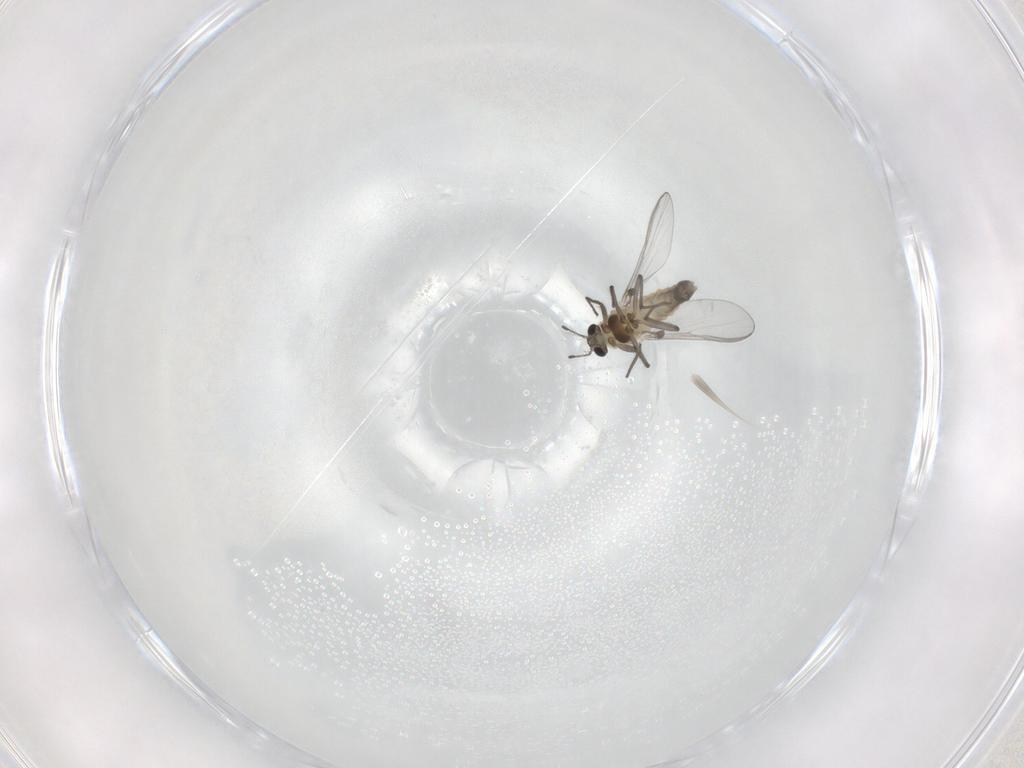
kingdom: Animalia
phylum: Arthropoda
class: Insecta
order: Diptera
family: Chironomidae
